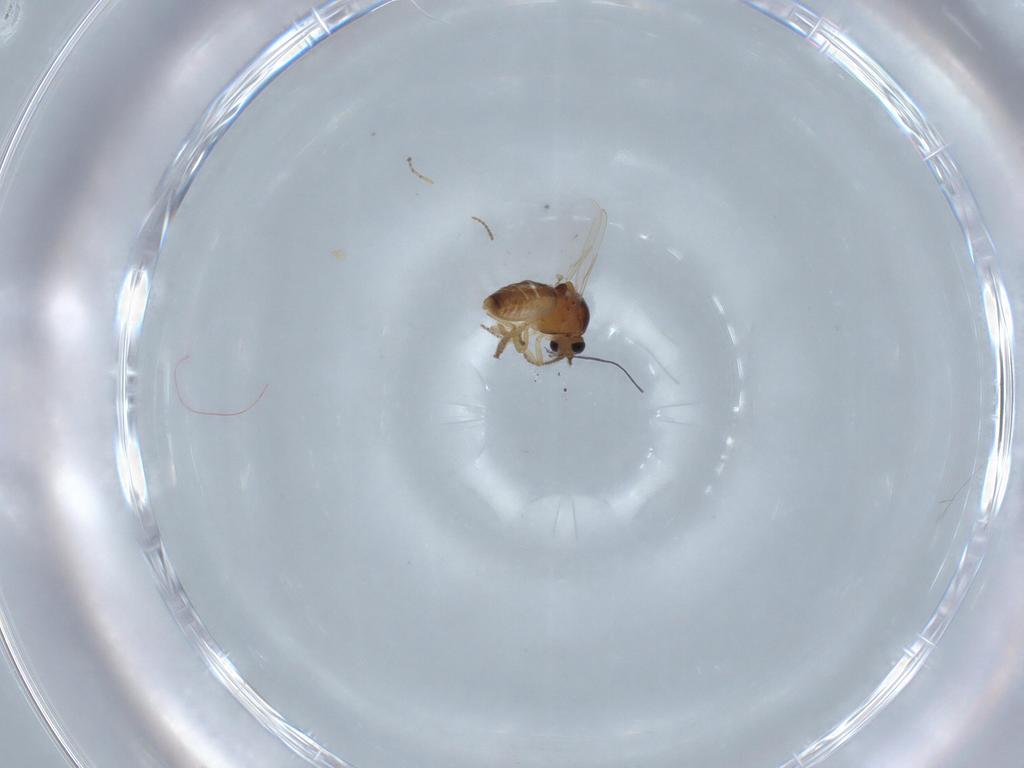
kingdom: Animalia
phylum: Arthropoda
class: Insecta
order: Diptera
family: Ceratopogonidae
